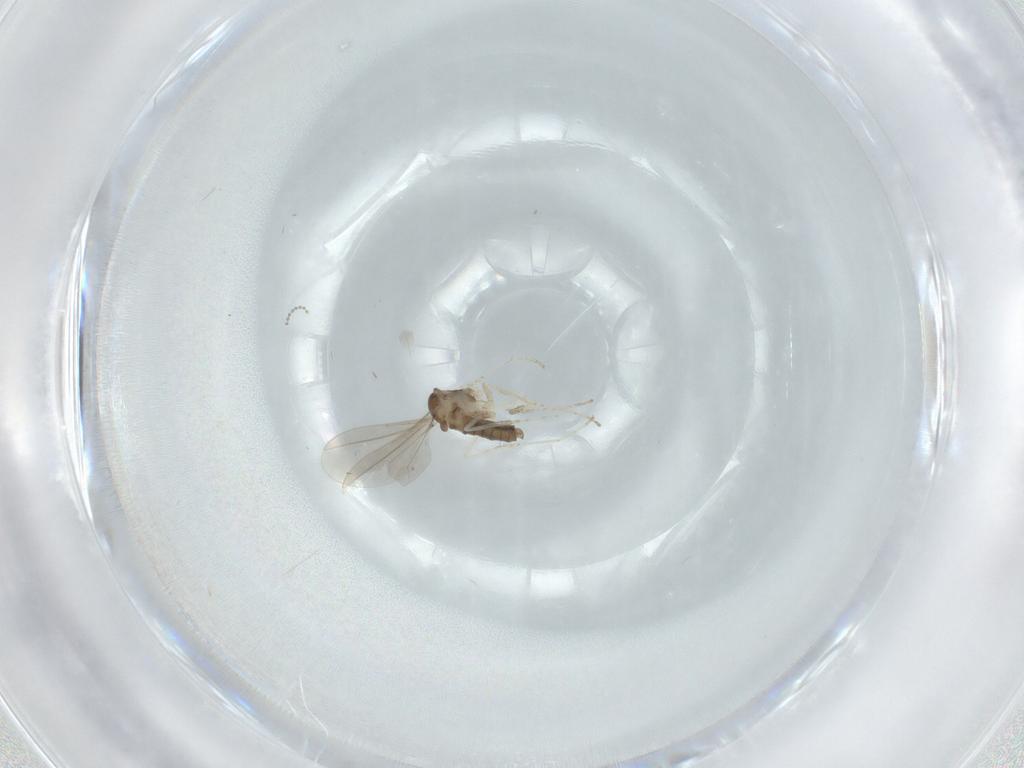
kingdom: Animalia
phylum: Arthropoda
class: Insecta
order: Diptera
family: Cecidomyiidae
